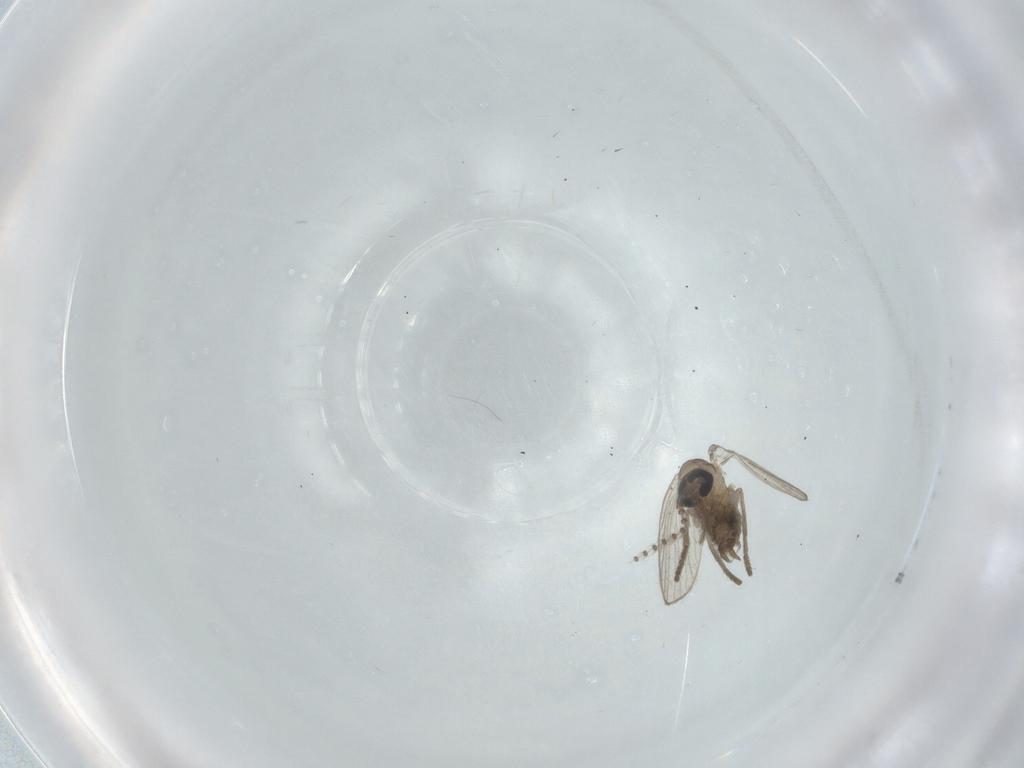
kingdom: Animalia
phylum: Arthropoda
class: Insecta
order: Diptera
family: Psychodidae
